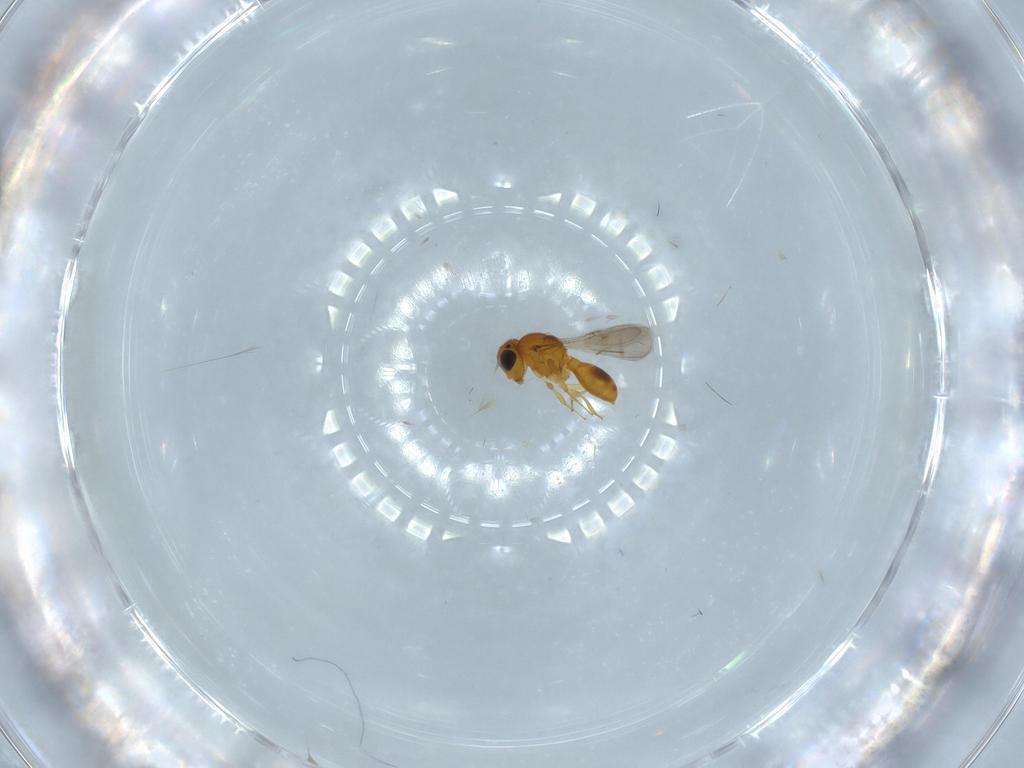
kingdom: Animalia
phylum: Arthropoda
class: Insecta
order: Hymenoptera
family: Scelionidae
